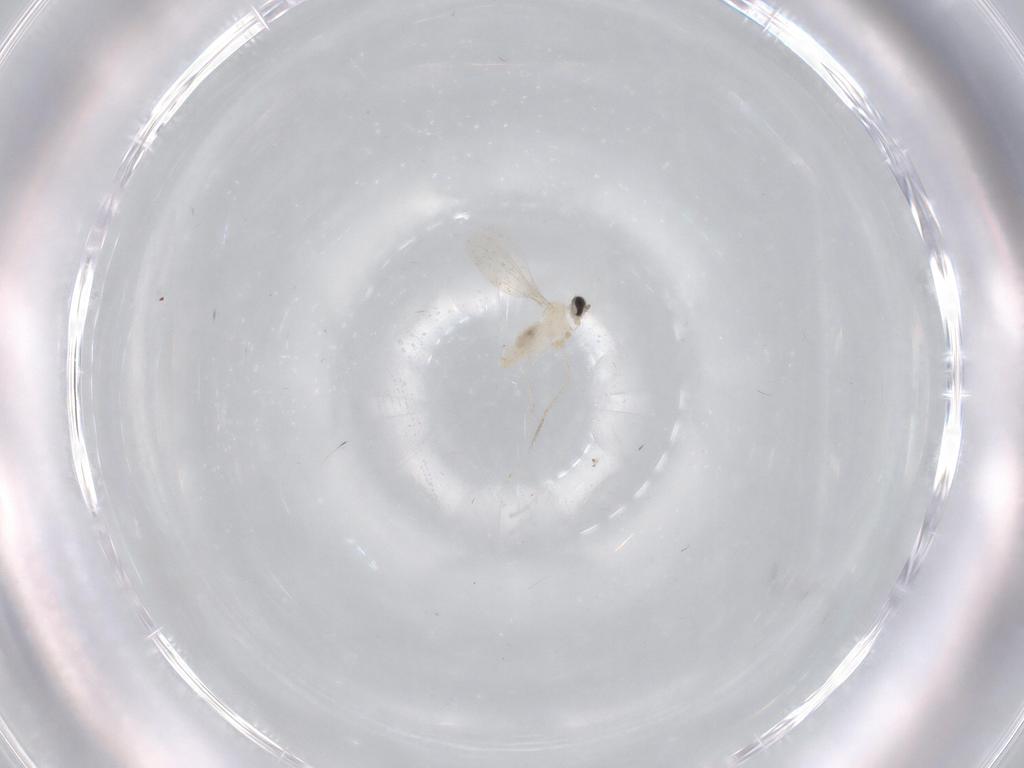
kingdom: Animalia
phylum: Arthropoda
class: Insecta
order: Diptera
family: Cecidomyiidae
